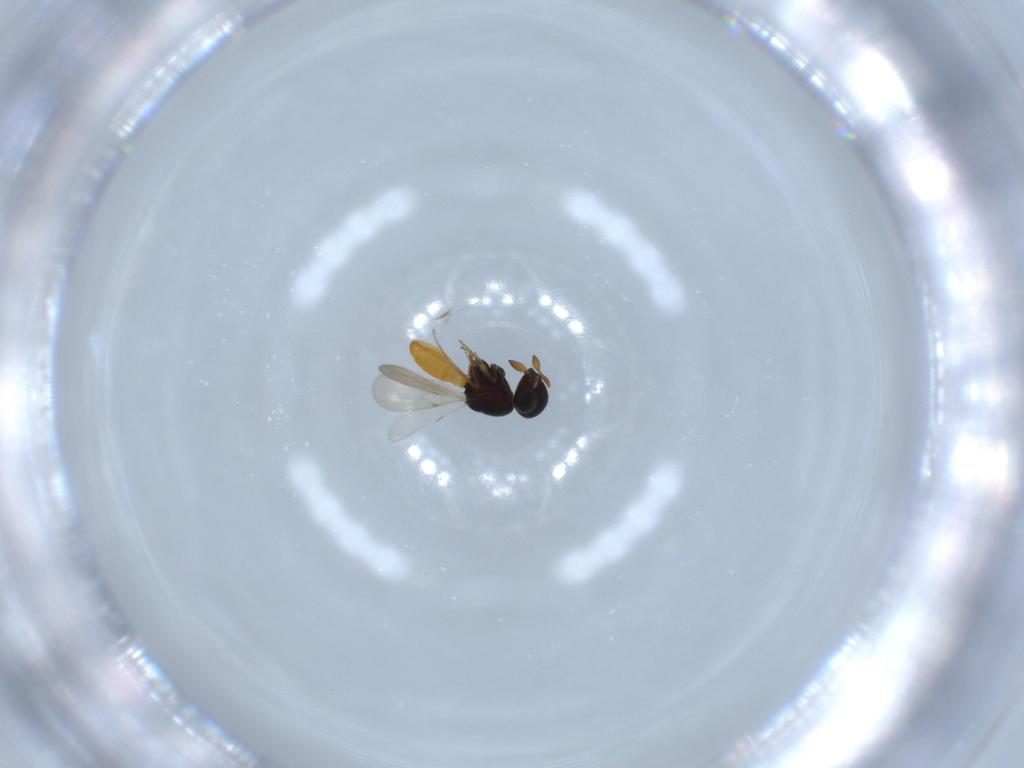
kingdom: Animalia
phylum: Arthropoda
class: Insecta
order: Hymenoptera
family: Scelionidae
